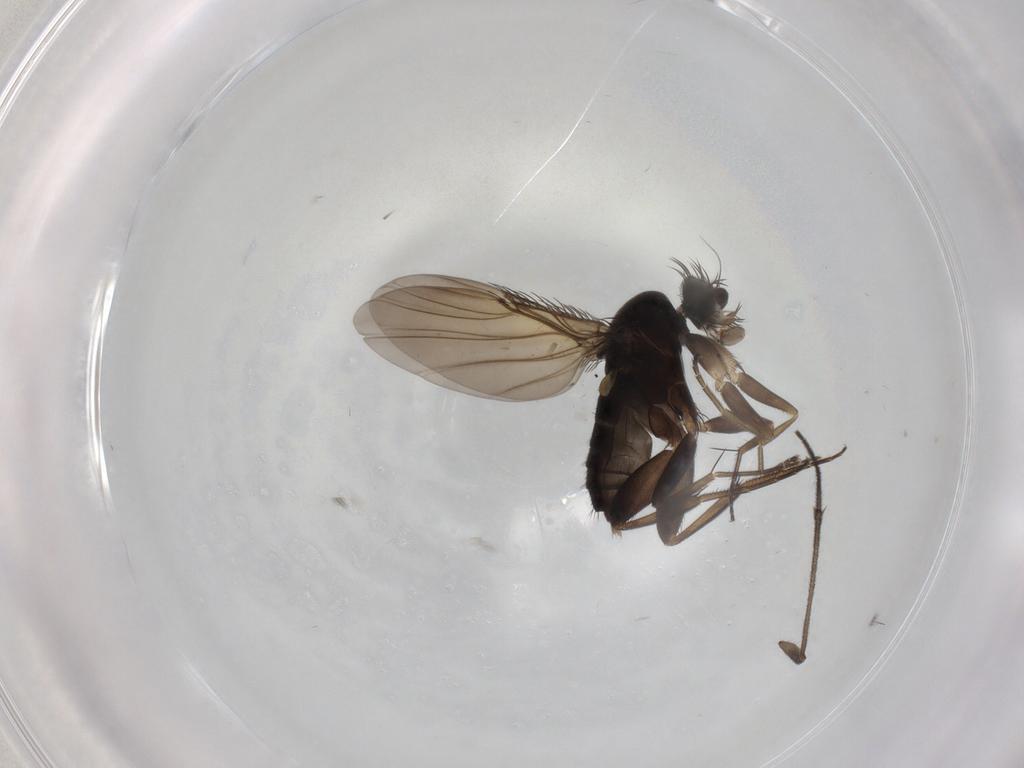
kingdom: Animalia
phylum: Arthropoda
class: Insecta
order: Diptera
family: Phoridae
